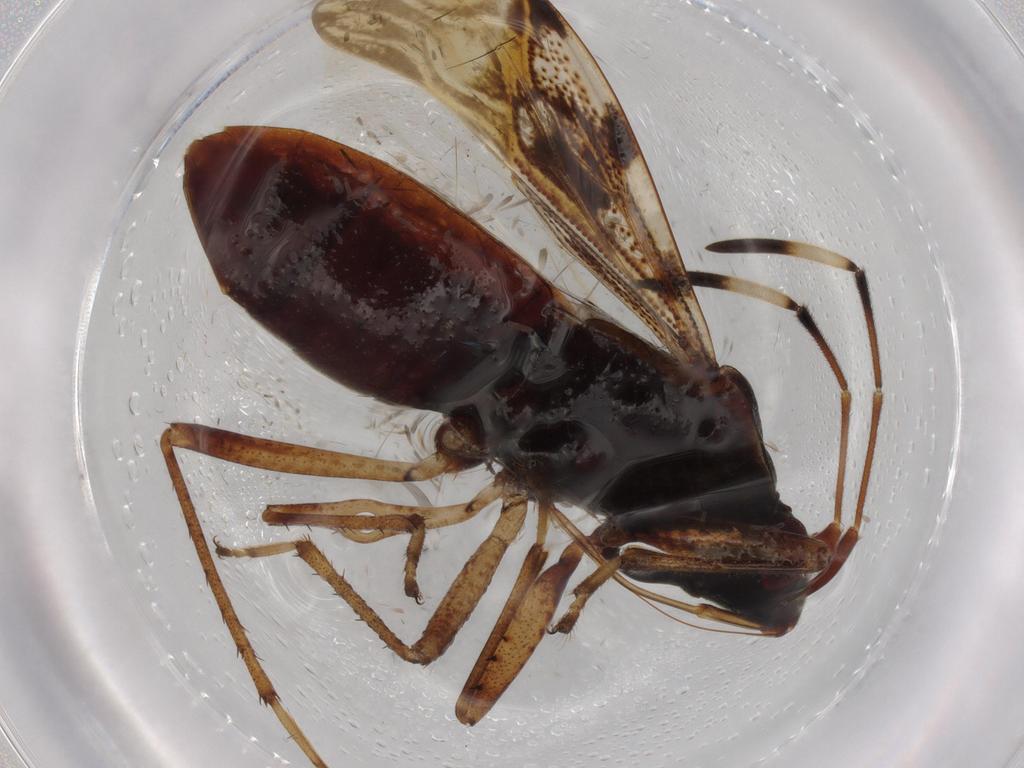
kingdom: Animalia
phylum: Arthropoda
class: Insecta
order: Hemiptera
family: Rhyparochromidae
